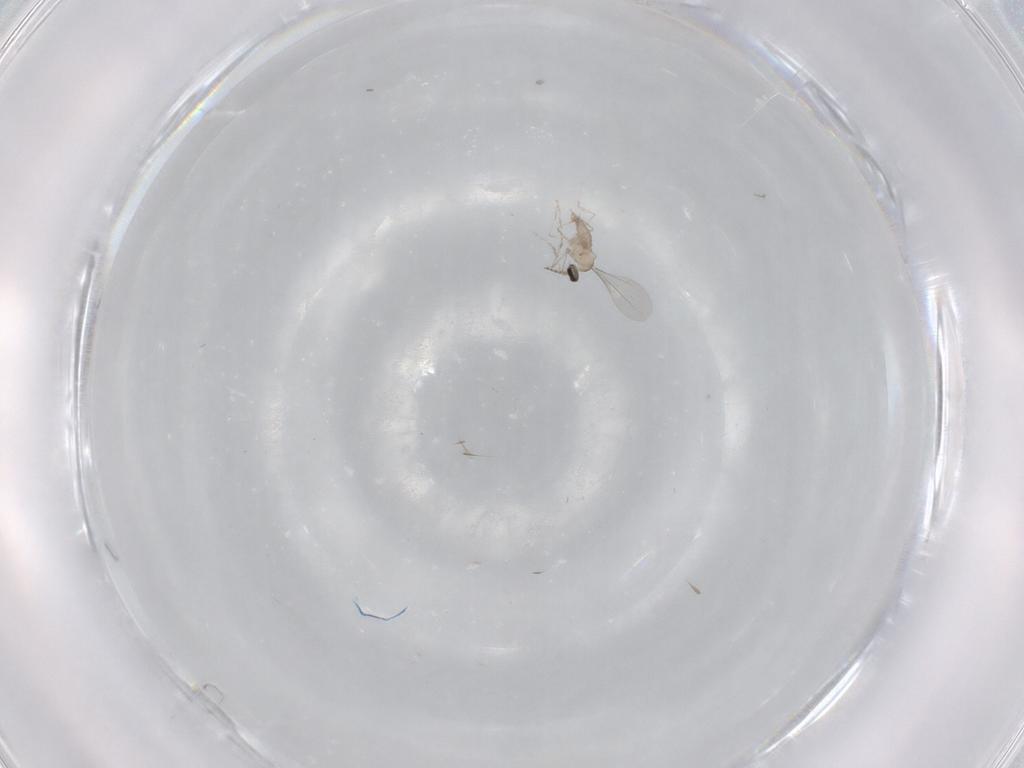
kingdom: Animalia
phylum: Arthropoda
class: Insecta
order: Diptera
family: Cecidomyiidae
